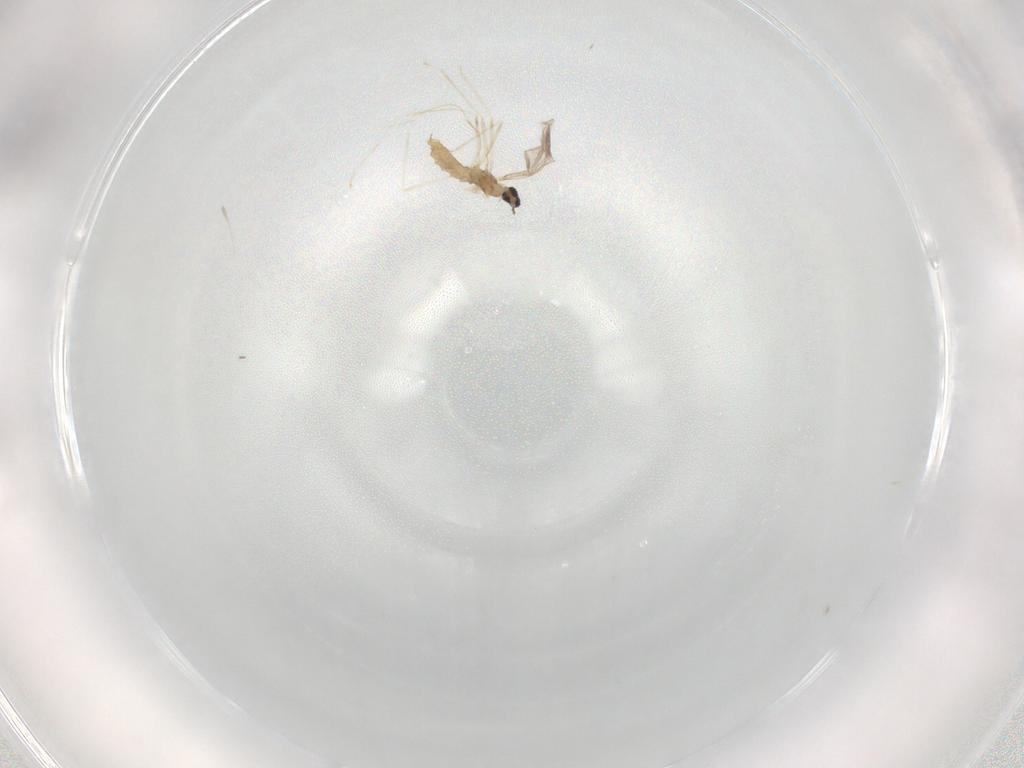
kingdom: Animalia
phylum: Arthropoda
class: Insecta
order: Diptera
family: Cecidomyiidae
